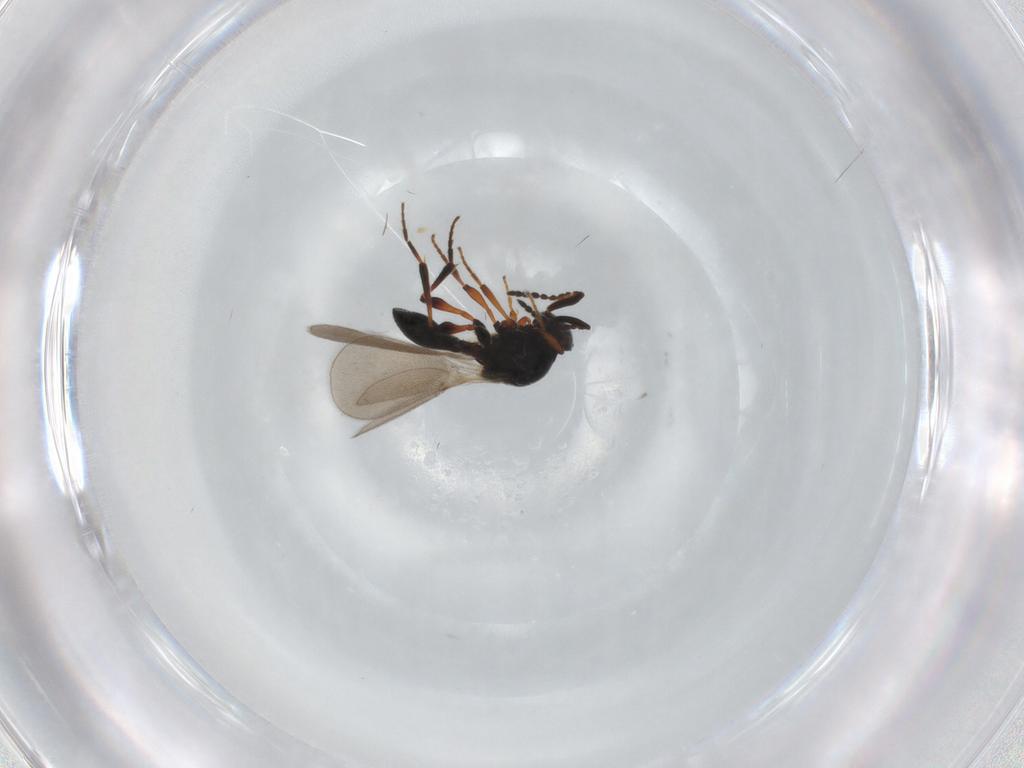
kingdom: Animalia
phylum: Arthropoda
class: Insecta
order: Hymenoptera
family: Platygastridae
